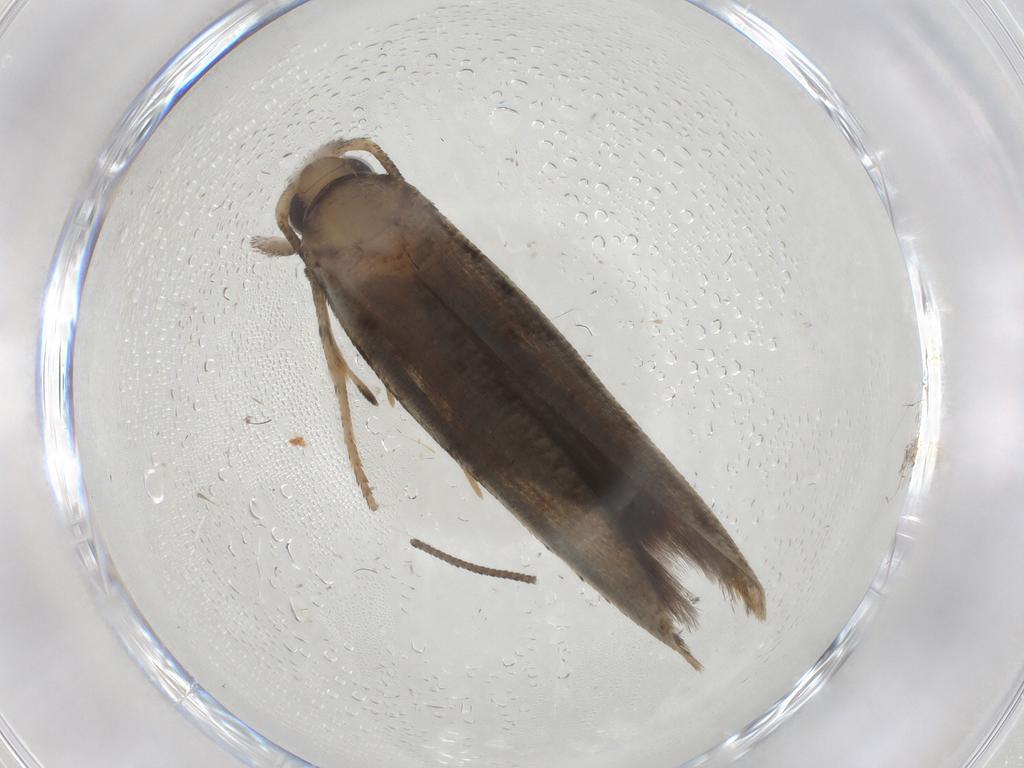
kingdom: Animalia
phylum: Arthropoda
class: Insecta
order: Lepidoptera
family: Yponomeutidae
